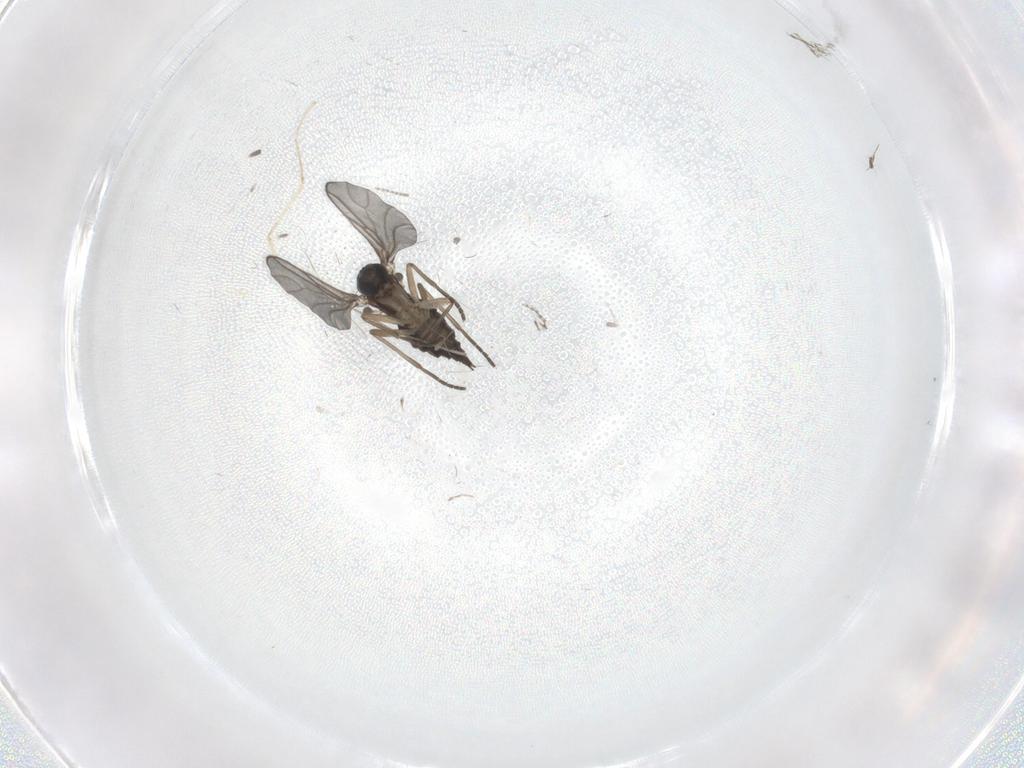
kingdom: Animalia
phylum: Arthropoda
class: Insecta
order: Diptera
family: Sciaridae
